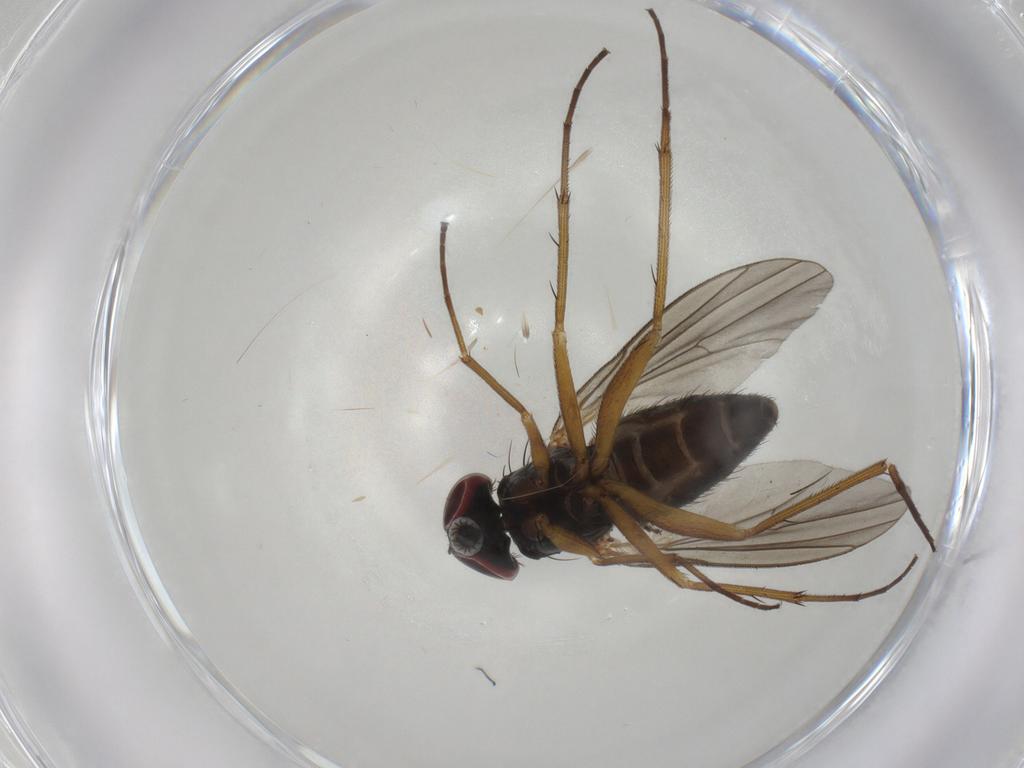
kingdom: Animalia
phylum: Arthropoda
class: Insecta
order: Diptera
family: Dolichopodidae
